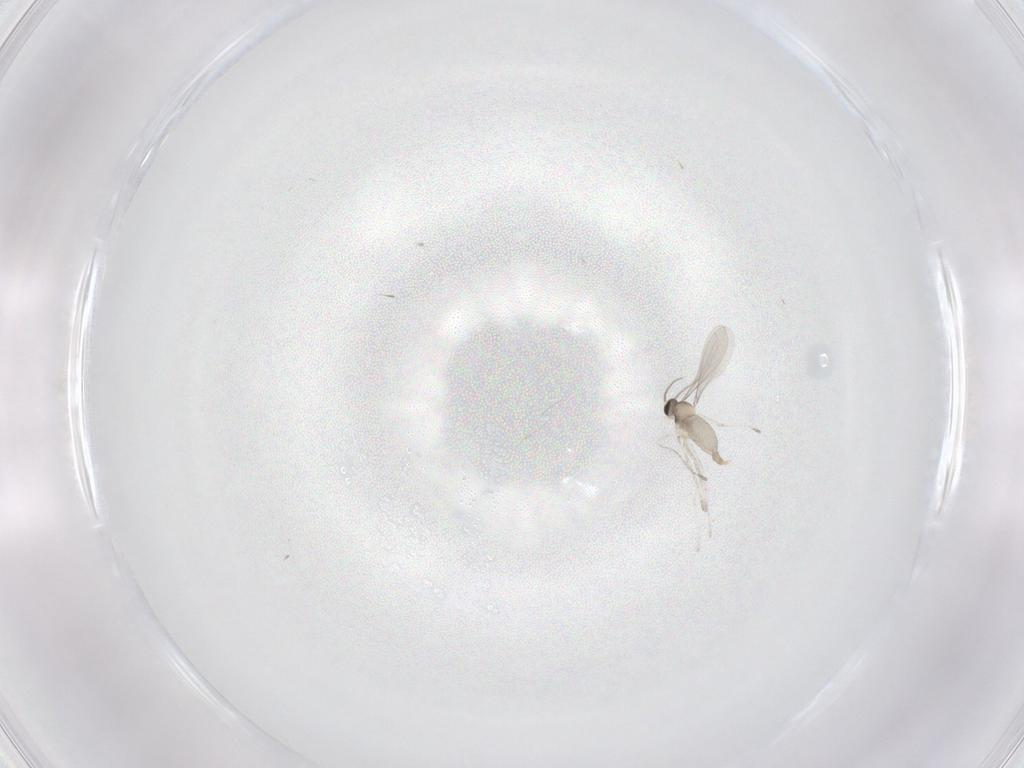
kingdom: Animalia
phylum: Arthropoda
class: Insecta
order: Diptera
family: Cecidomyiidae
